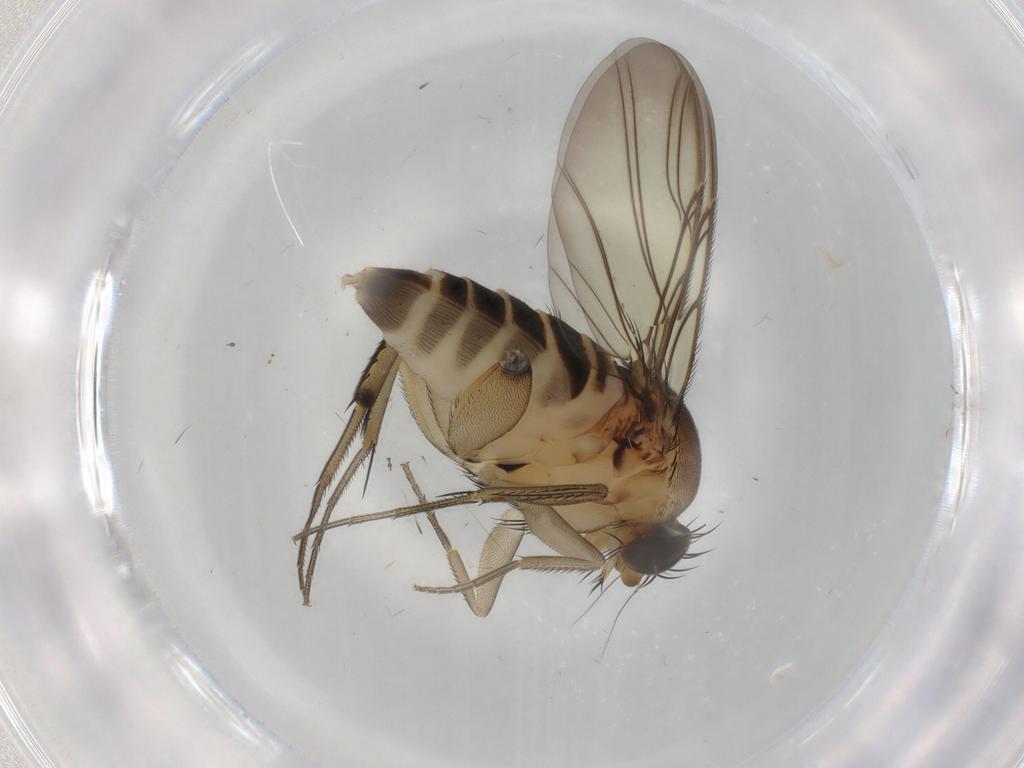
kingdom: Animalia
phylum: Arthropoda
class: Insecta
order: Diptera
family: Phoridae
